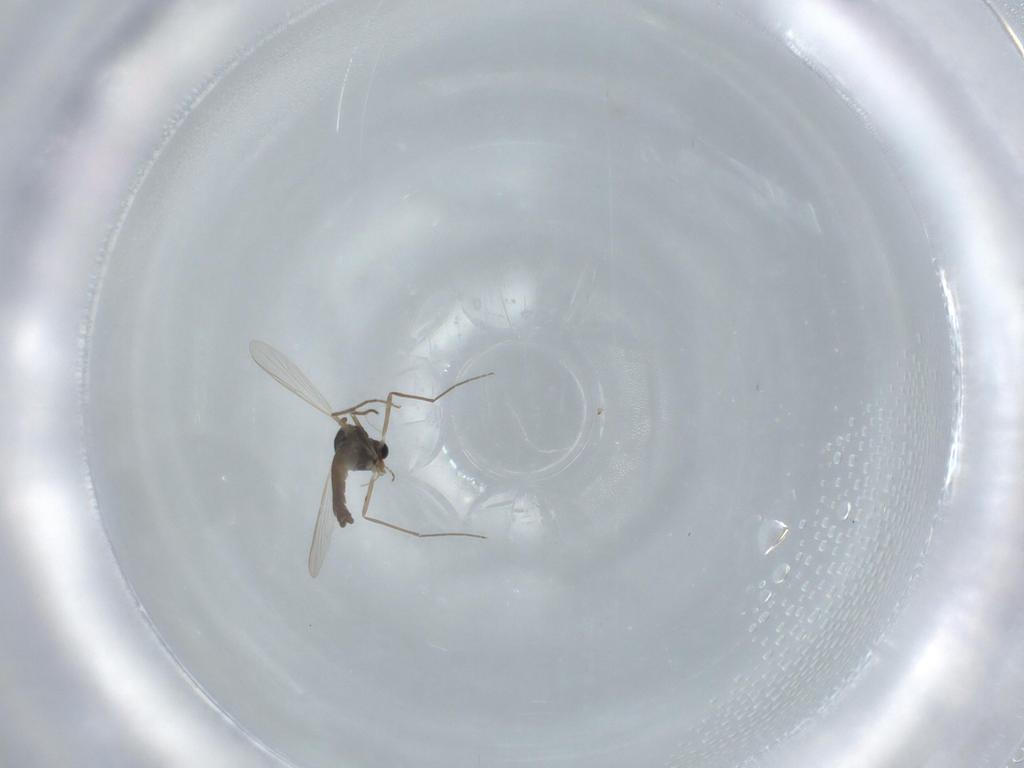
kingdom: Animalia
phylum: Arthropoda
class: Insecta
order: Diptera
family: Chironomidae
